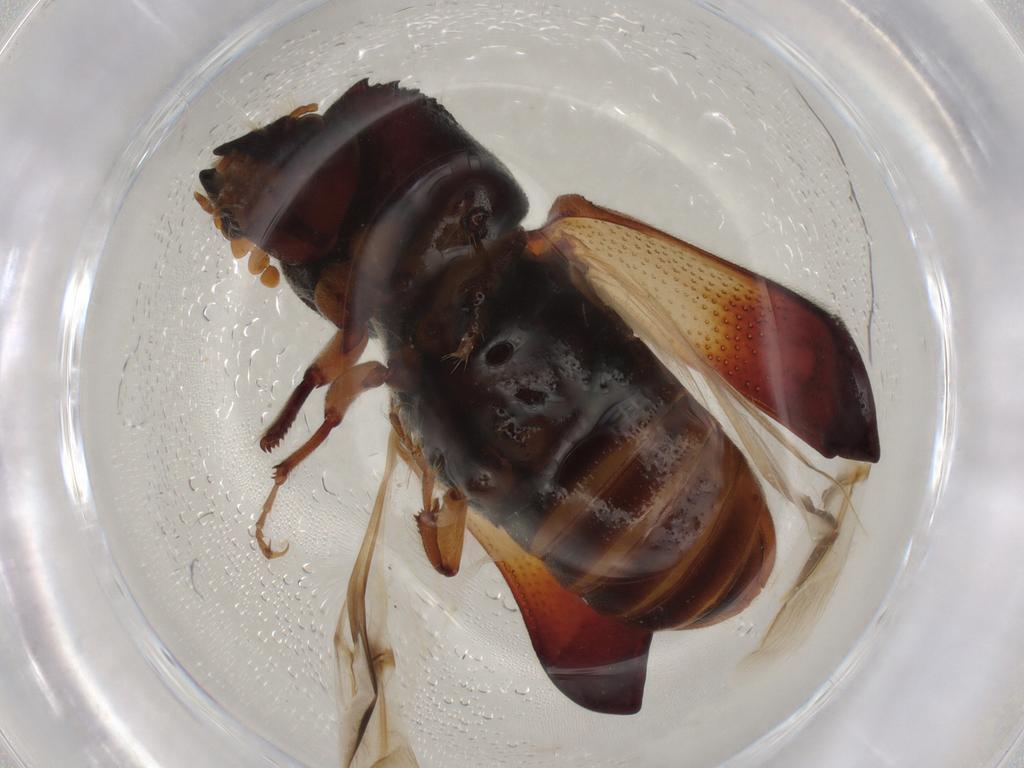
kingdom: Animalia
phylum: Arthropoda
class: Insecta
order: Coleoptera
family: Bostrichidae
